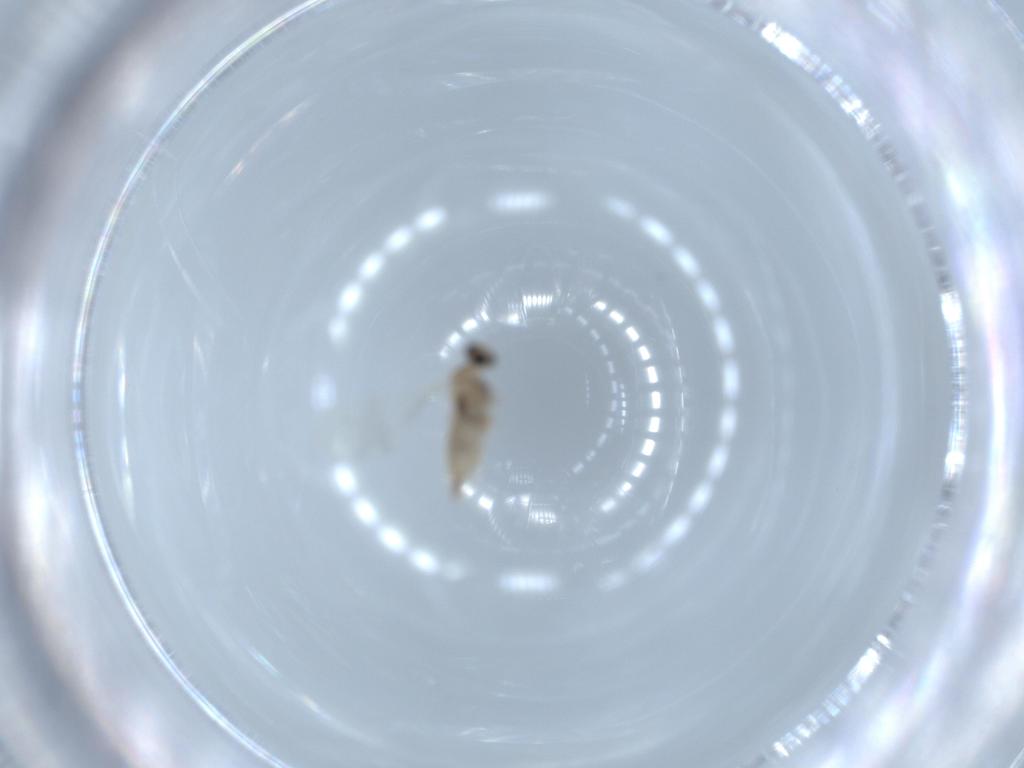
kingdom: Animalia
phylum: Arthropoda
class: Insecta
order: Diptera
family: Cecidomyiidae
